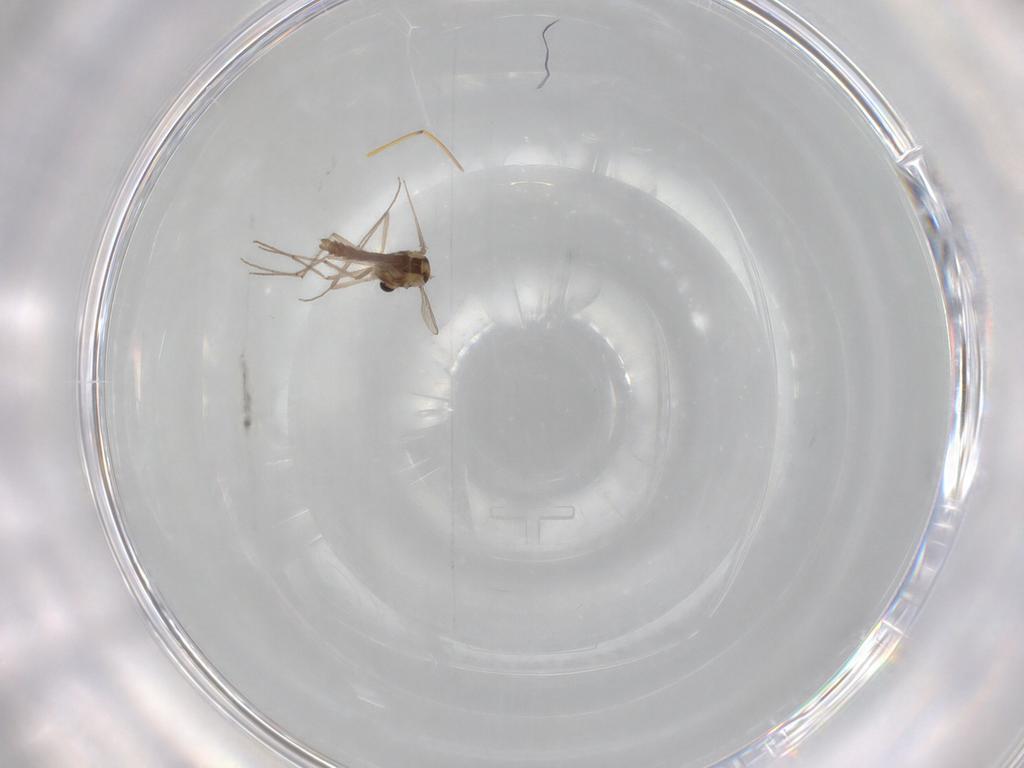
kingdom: Animalia
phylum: Arthropoda
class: Insecta
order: Diptera
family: Chironomidae
